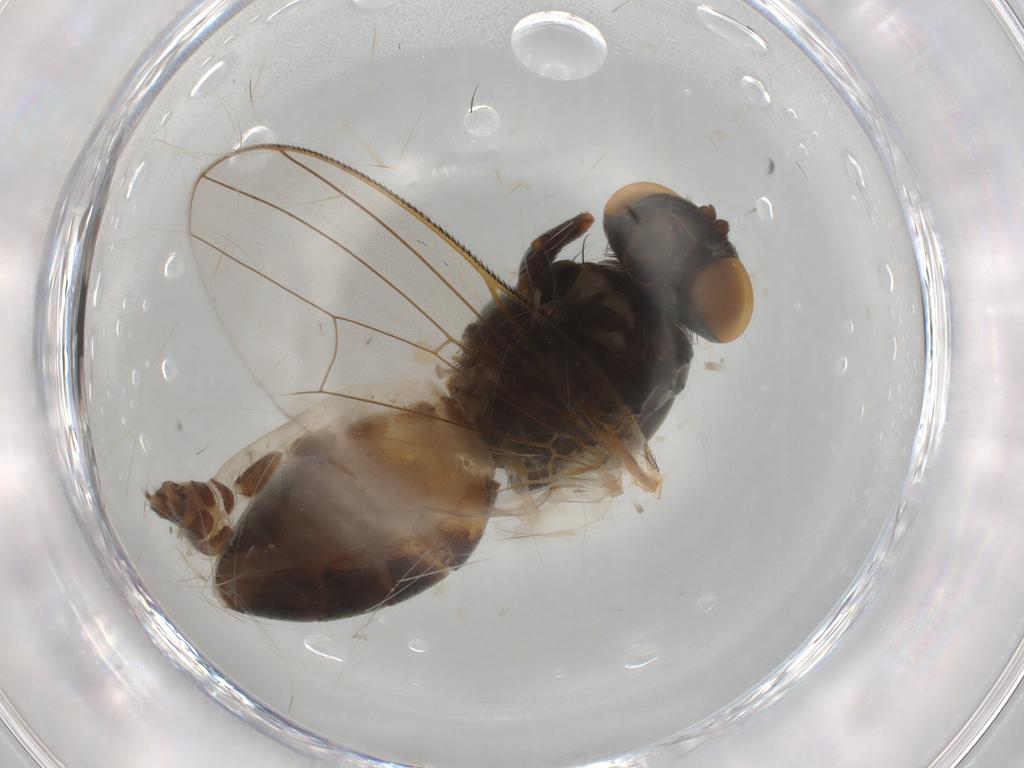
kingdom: Animalia
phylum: Arthropoda
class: Insecta
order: Diptera
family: Fannia
